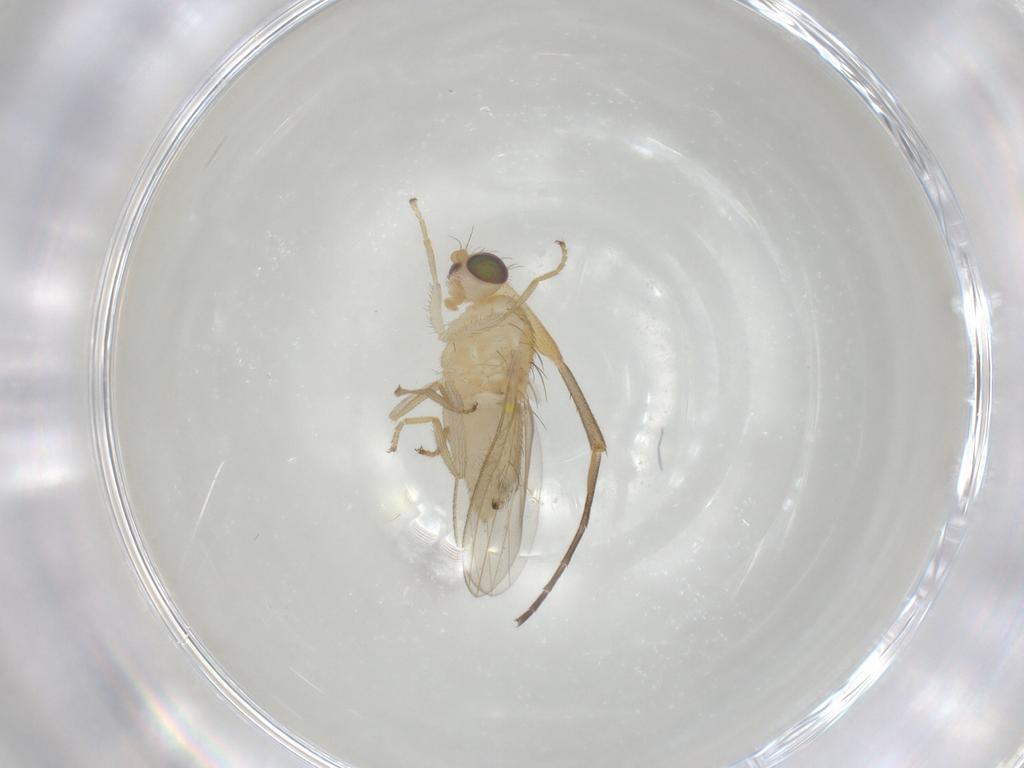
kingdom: Animalia
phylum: Arthropoda
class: Insecta
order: Diptera
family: Chyromyidae
